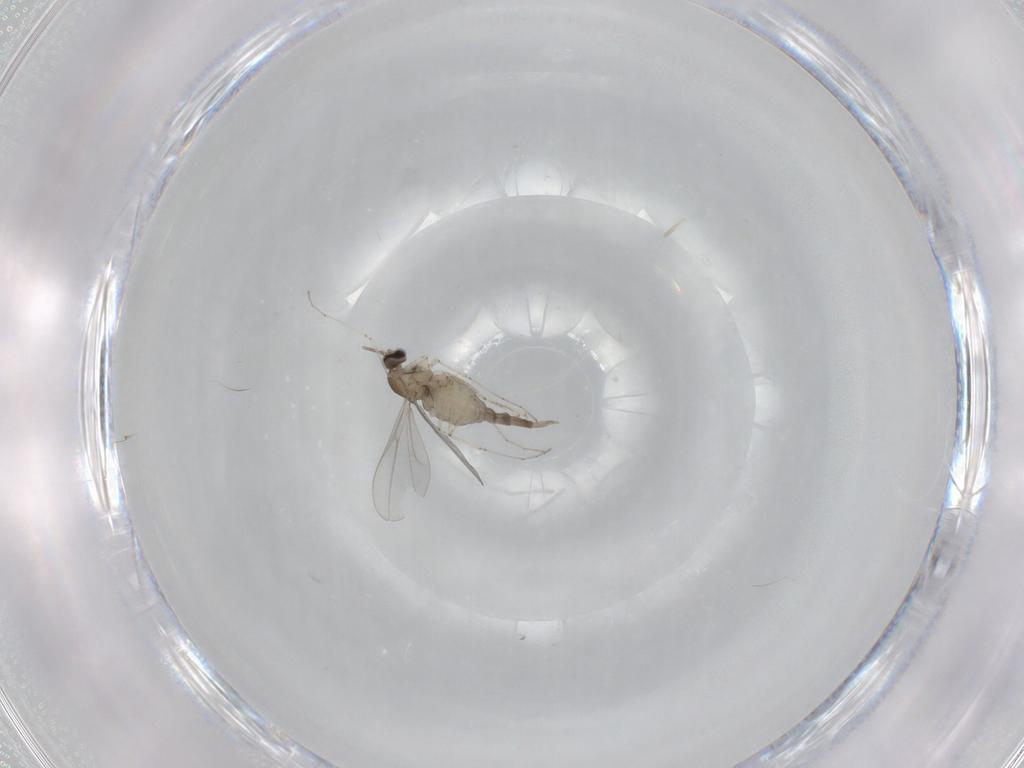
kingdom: Animalia
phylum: Arthropoda
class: Insecta
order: Diptera
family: Cecidomyiidae
